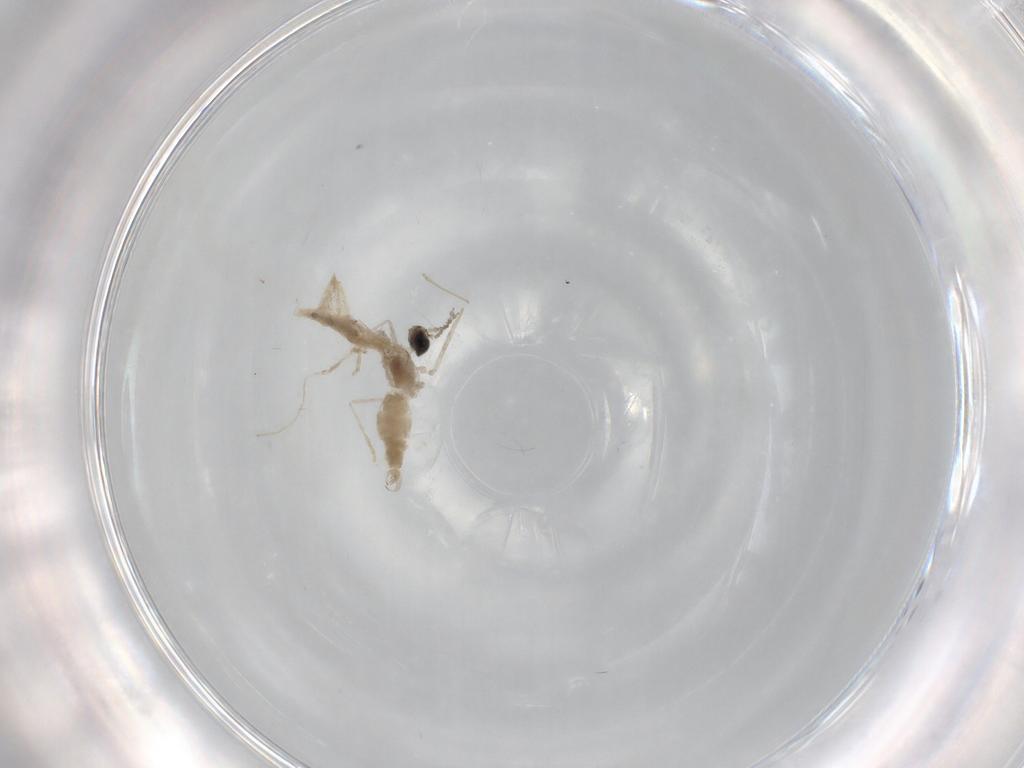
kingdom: Animalia
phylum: Arthropoda
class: Insecta
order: Diptera
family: Cecidomyiidae
